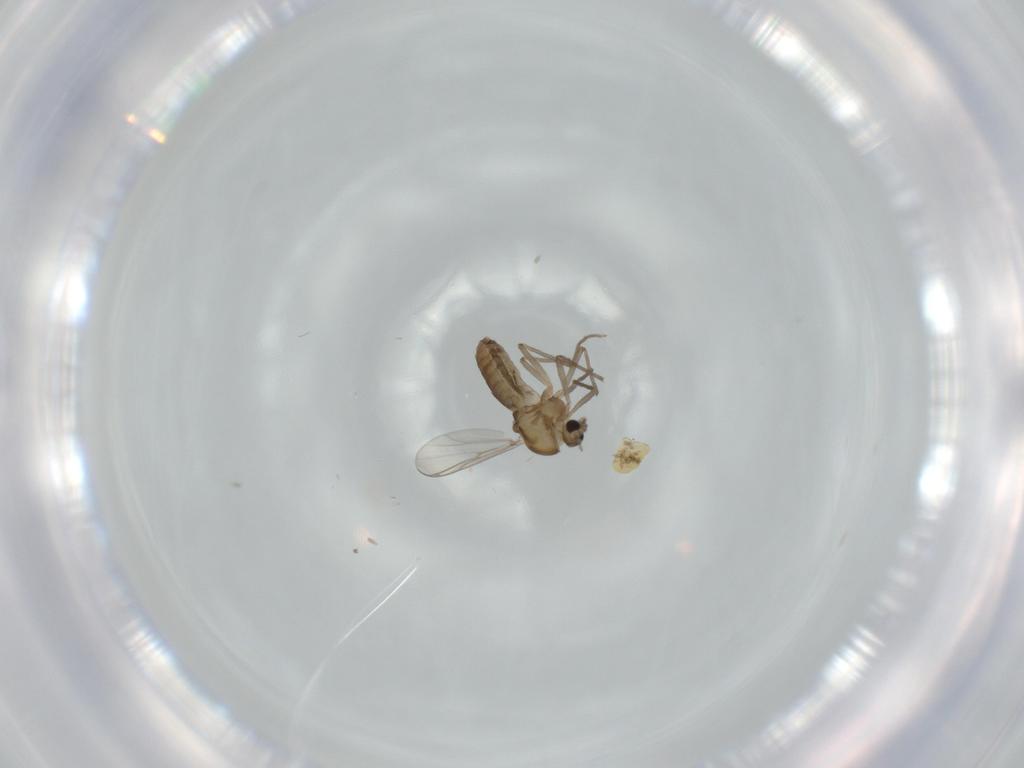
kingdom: Animalia
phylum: Arthropoda
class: Insecta
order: Diptera
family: Chironomidae
